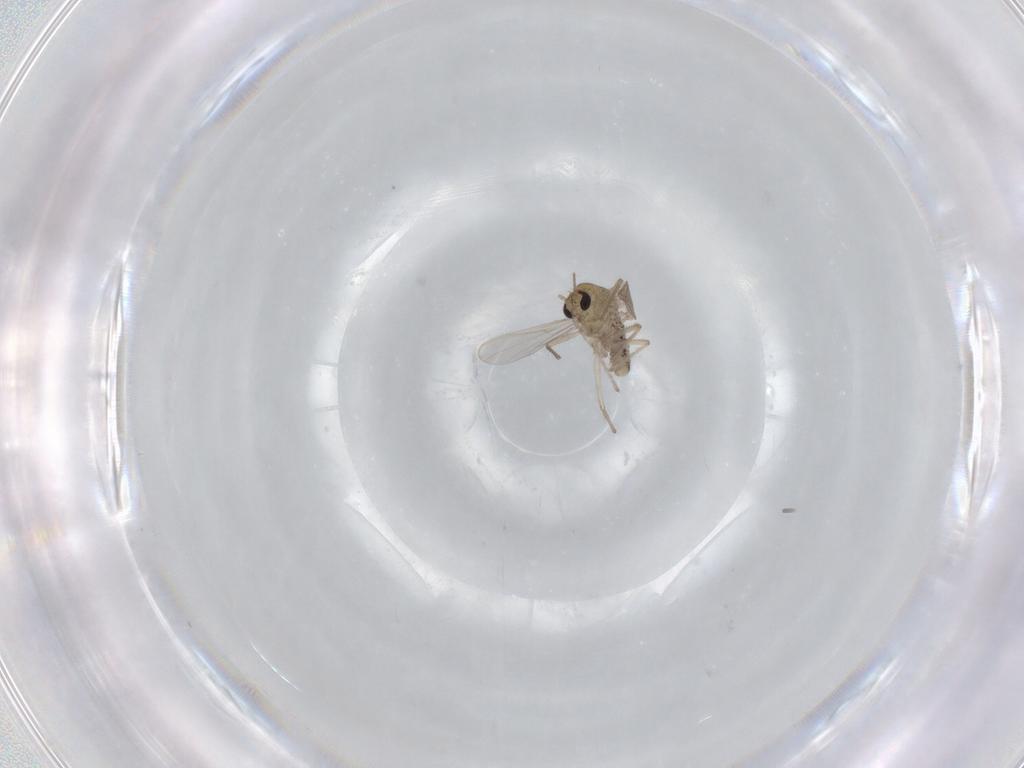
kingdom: Animalia
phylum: Arthropoda
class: Insecta
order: Diptera
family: Chironomidae
